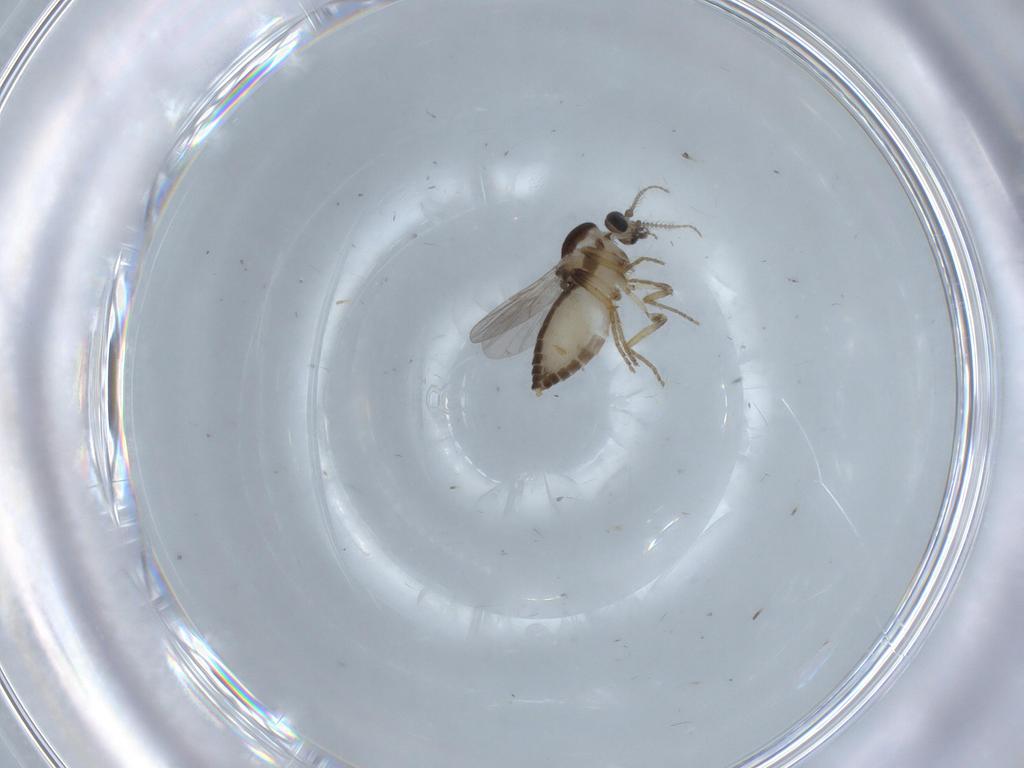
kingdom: Animalia
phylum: Arthropoda
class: Insecta
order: Diptera
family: Ceratopogonidae
